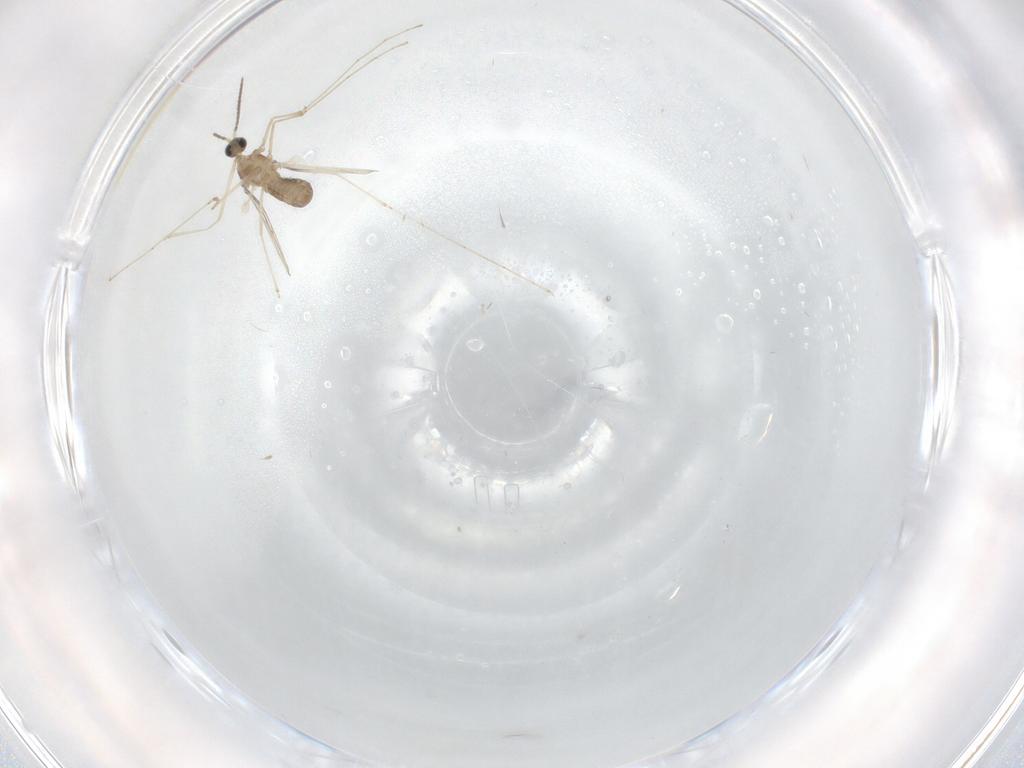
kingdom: Animalia
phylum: Arthropoda
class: Insecta
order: Diptera
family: Cecidomyiidae
